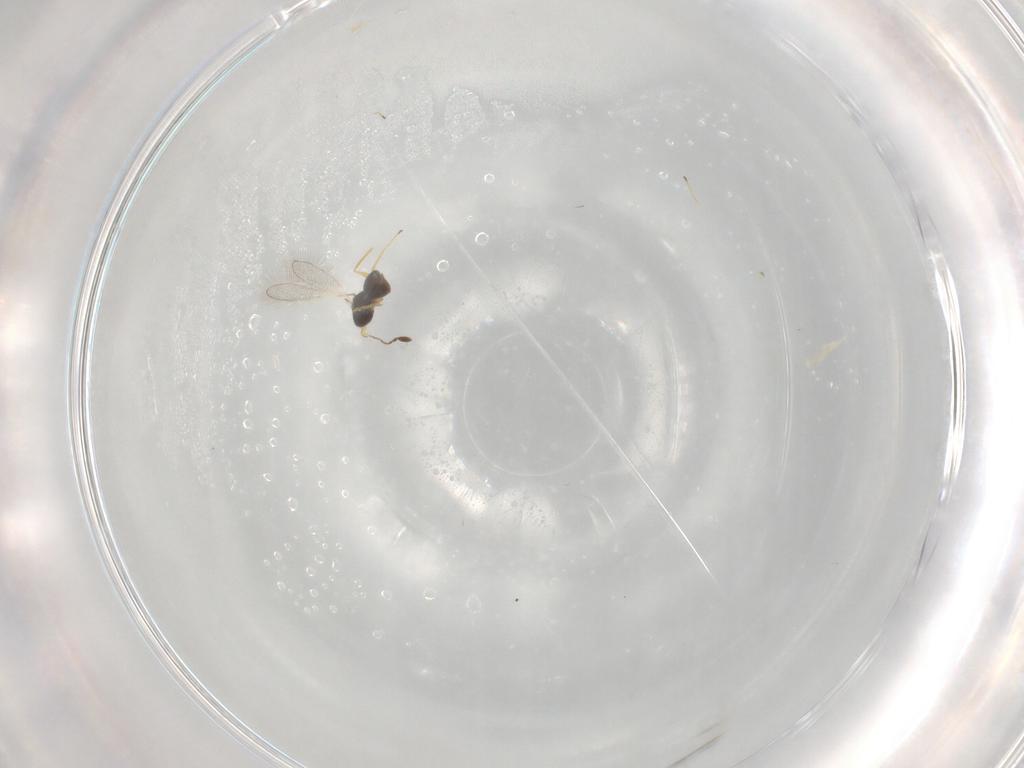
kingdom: Animalia
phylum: Arthropoda
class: Insecta
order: Hymenoptera
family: Mymaridae
